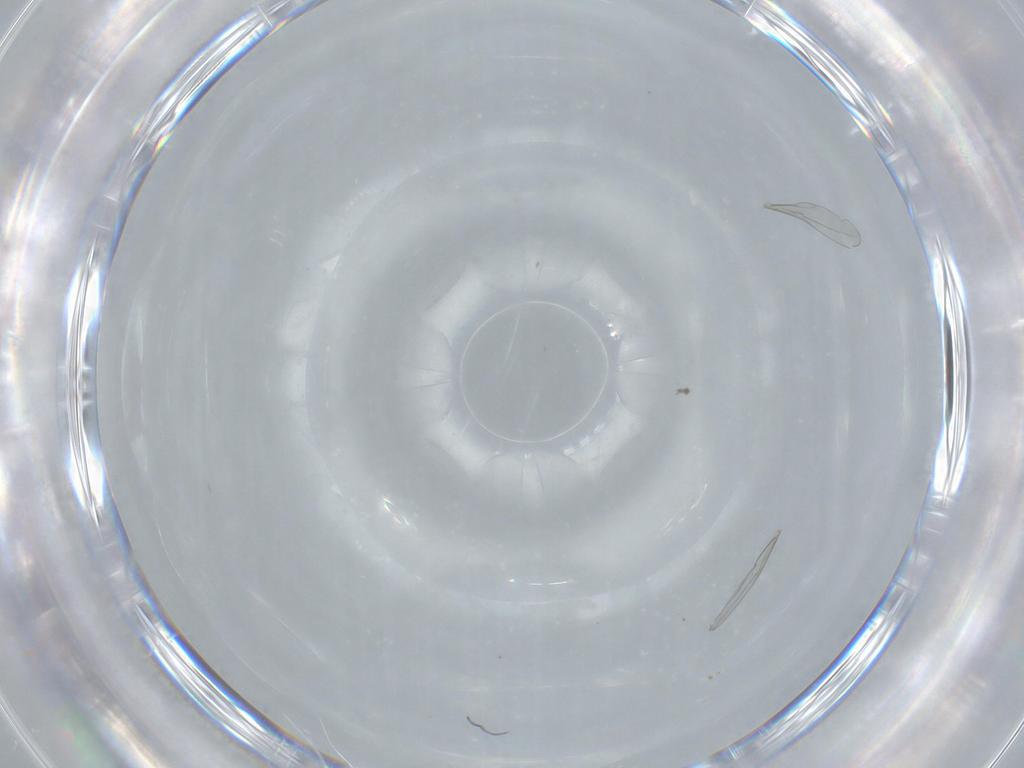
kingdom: Animalia
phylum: Arthropoda
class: Insecta
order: Diptera
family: Cecidomyiidae
